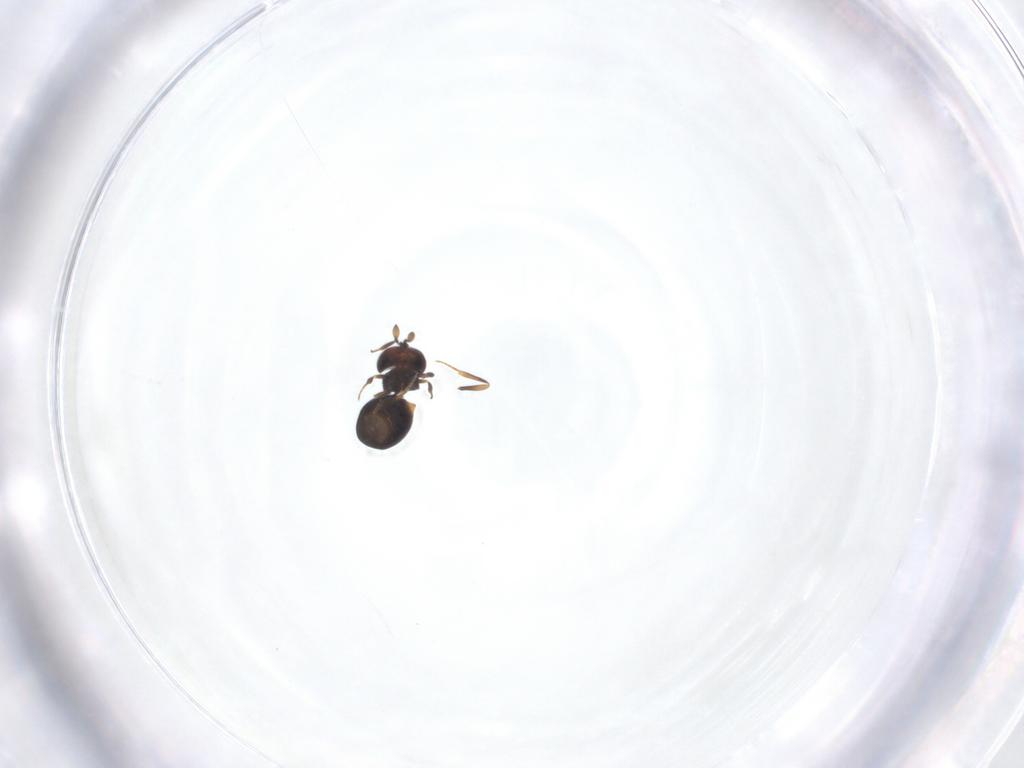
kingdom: Animalia
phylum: Arthropoda
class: Insecta
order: Hymenoptera
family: Scelionidae
